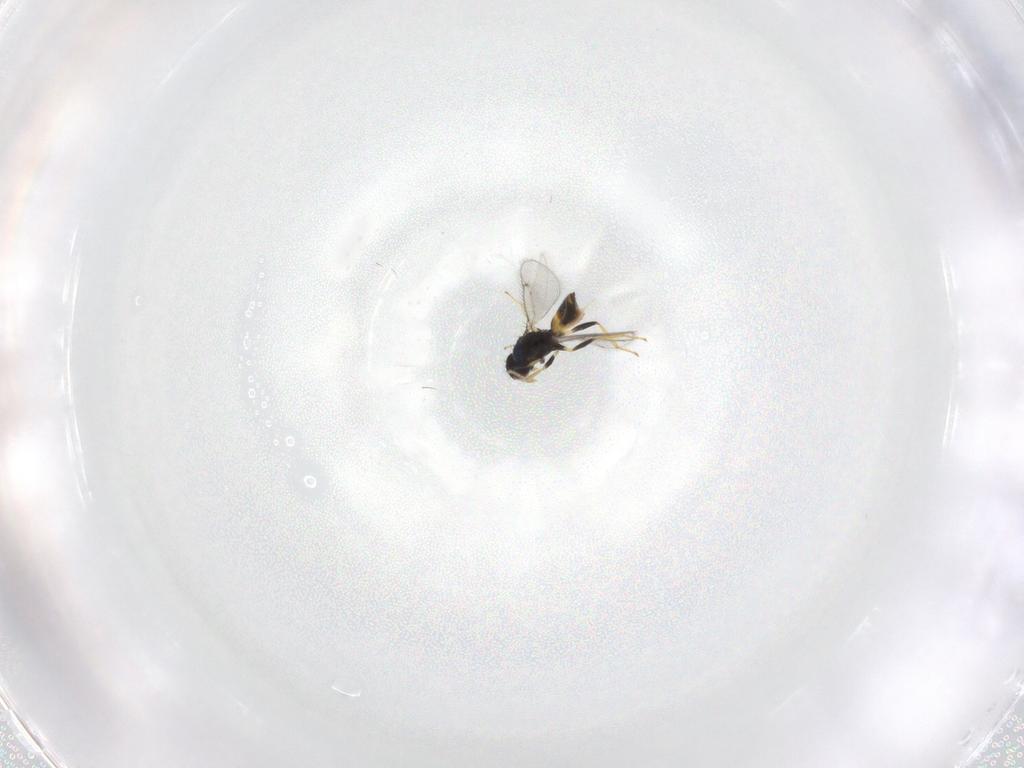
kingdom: Animalia
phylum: Arthropoda
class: Insecta
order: Hymenoptera
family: Eulophidae
